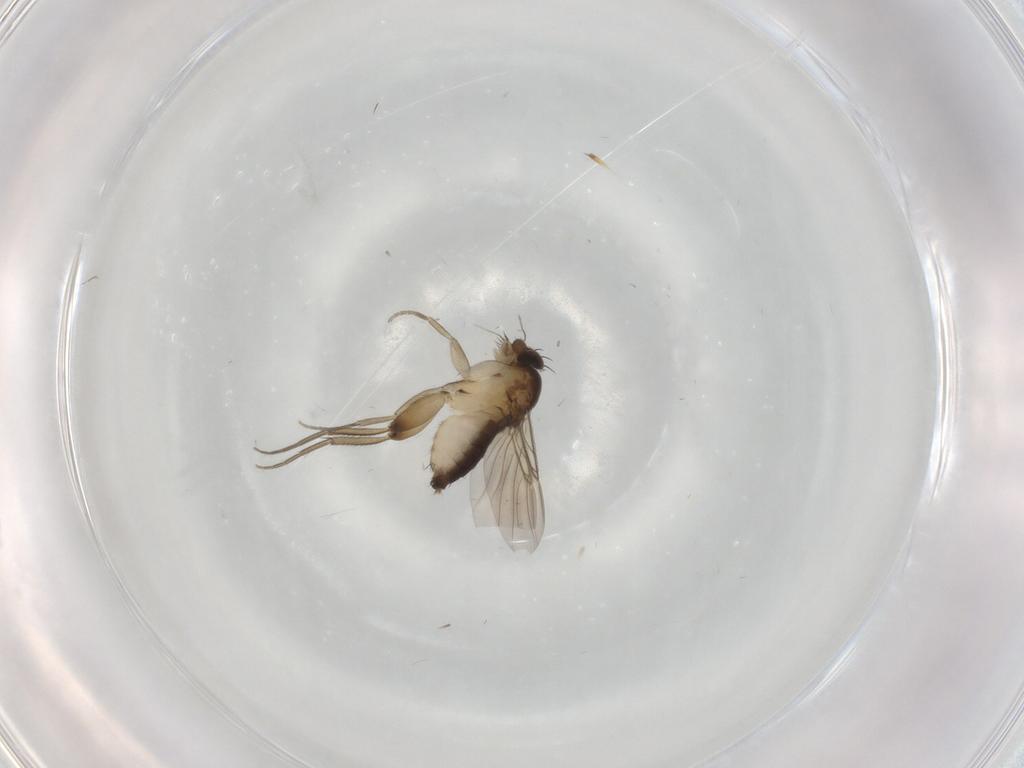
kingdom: Animalia
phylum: Arthropoda
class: Insecta
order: Diptera
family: Phoridae
